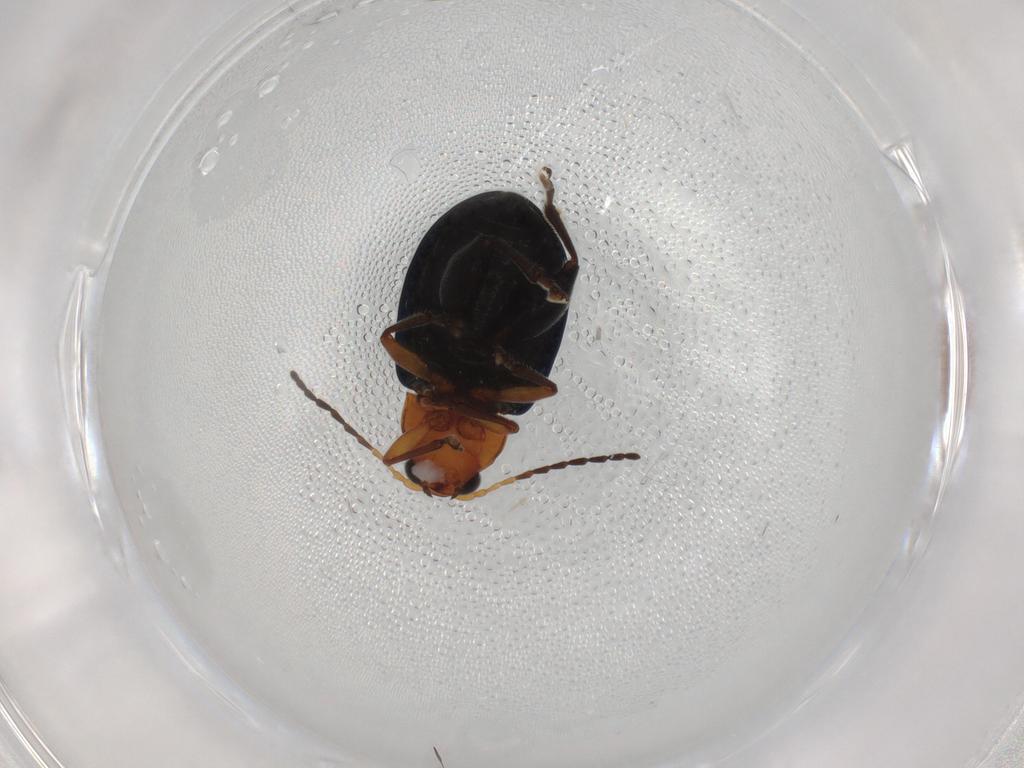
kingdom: Animalia
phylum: Arthropoda
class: Insecta
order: Coleoptera
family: Chrysomelidae
